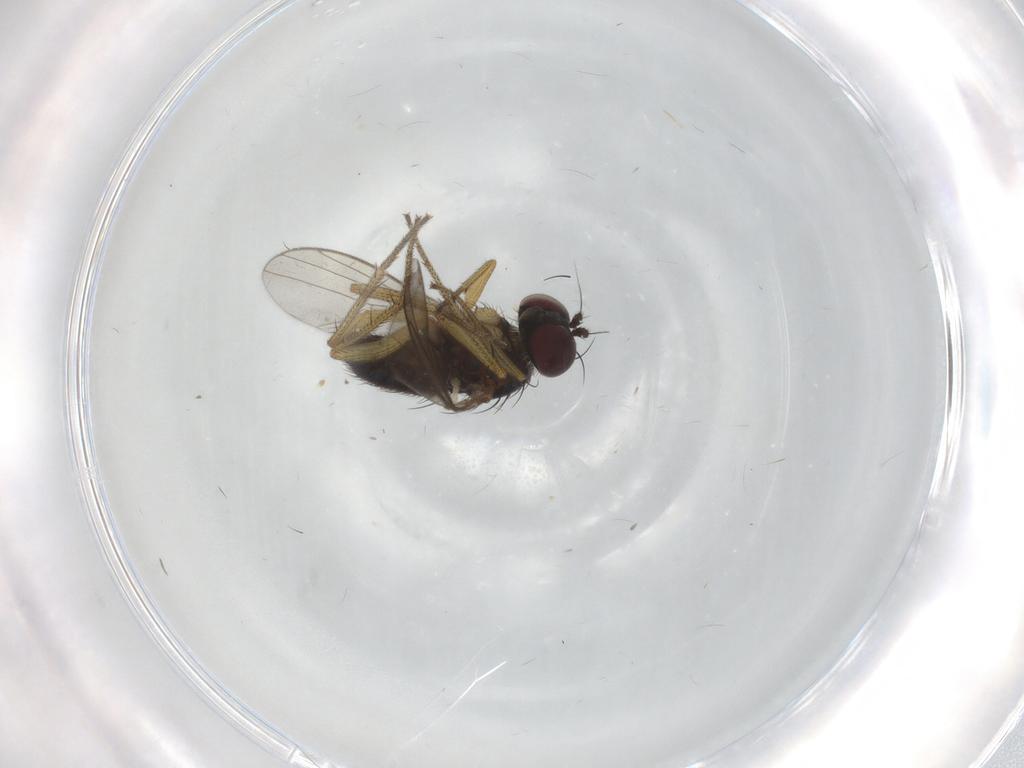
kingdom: Animalia
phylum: Arthropoda
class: Insecta
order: Diptera
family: Dolichopodidae
